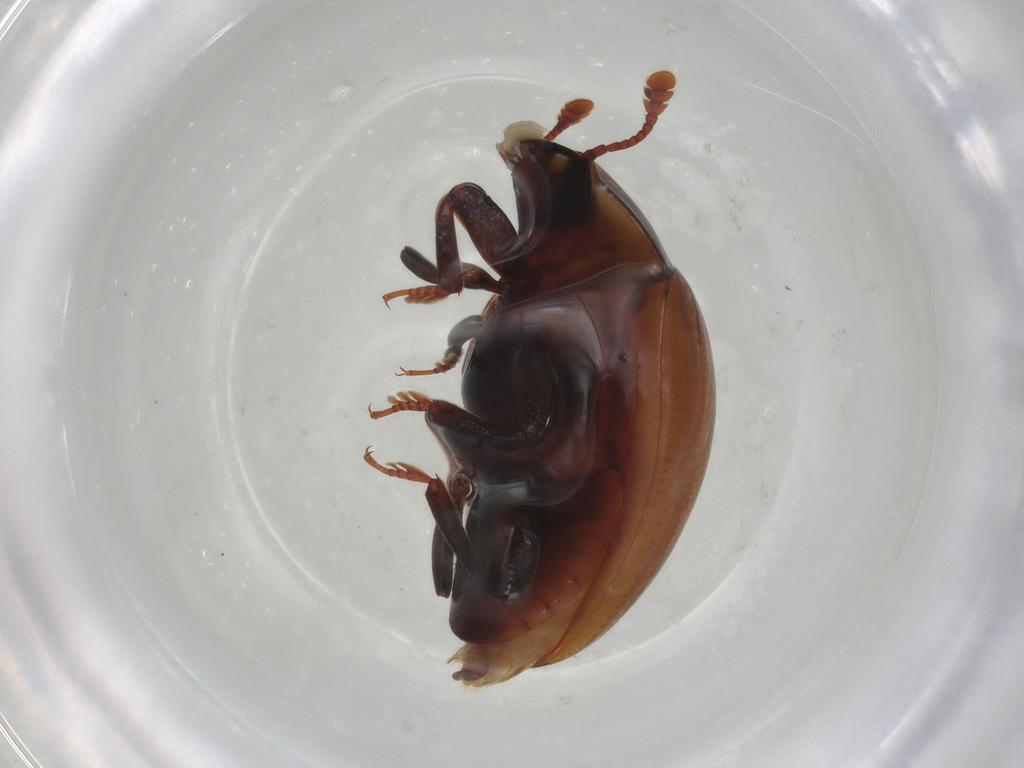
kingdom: Animalia
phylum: Arthropoda
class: Insecta
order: Coleoptera
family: Zopheridae
